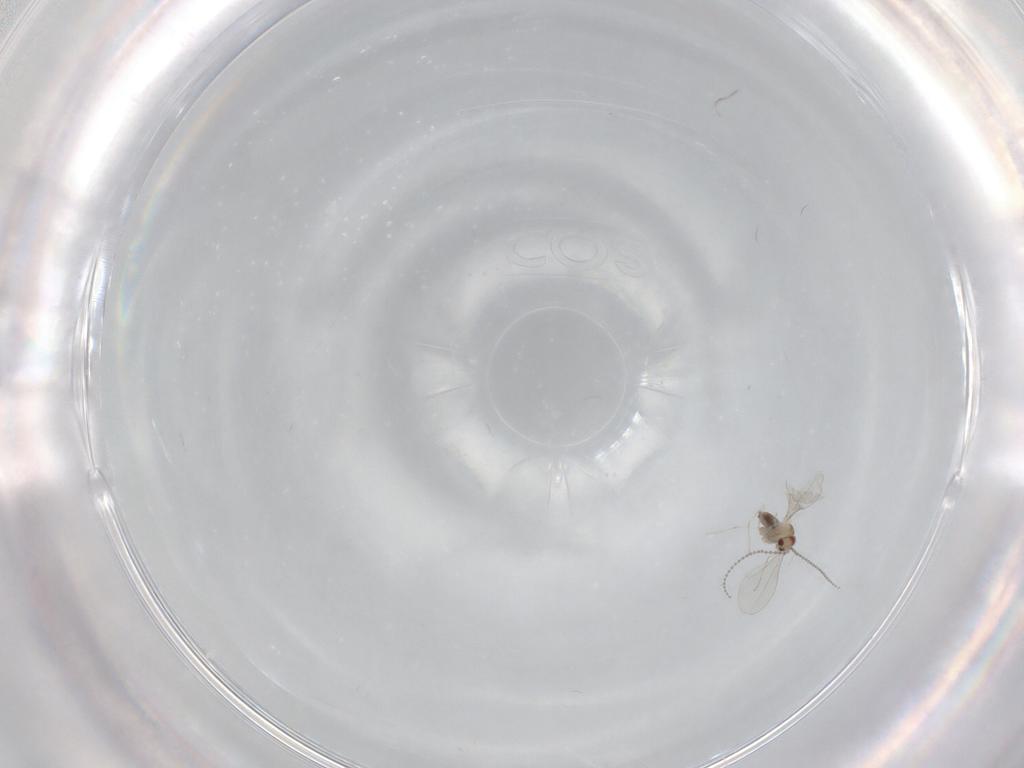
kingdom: Animalia
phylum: Arthropoda
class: Insecta
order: Diptera
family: Cecidomyiidae
